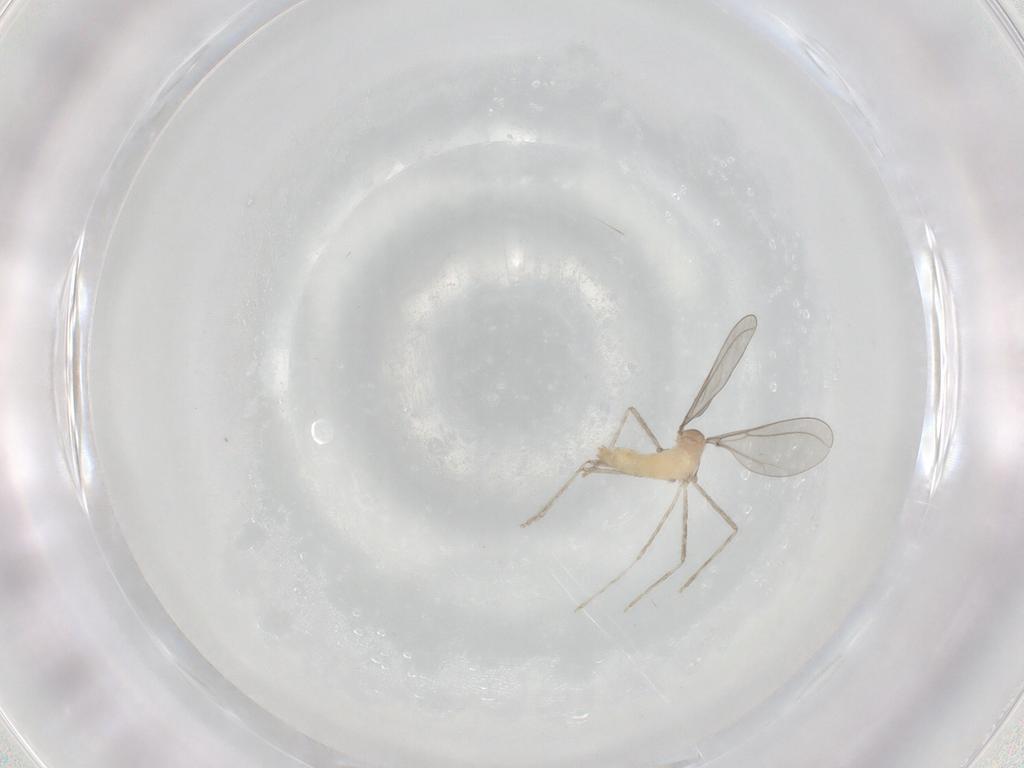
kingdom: Animalia
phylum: Arthropoda
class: Insecta
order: Diptera
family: Cecidomyiidae
